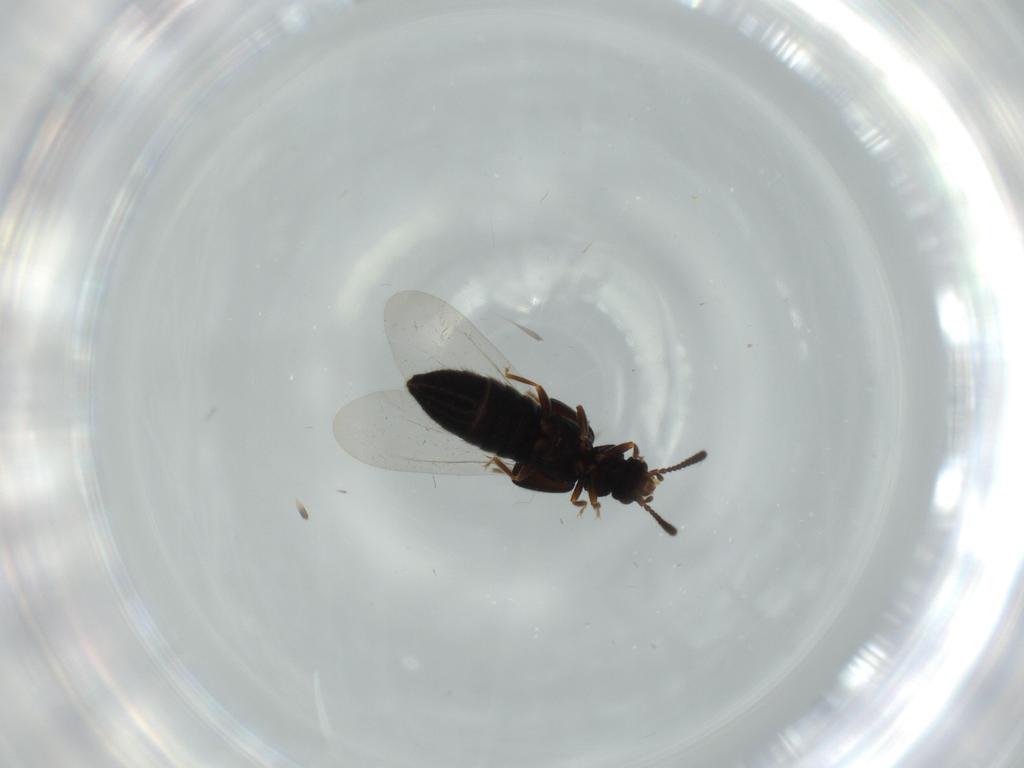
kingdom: Animalia
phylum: Arthropoda
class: Insecta
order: Coleoptera
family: Staphylinidae
